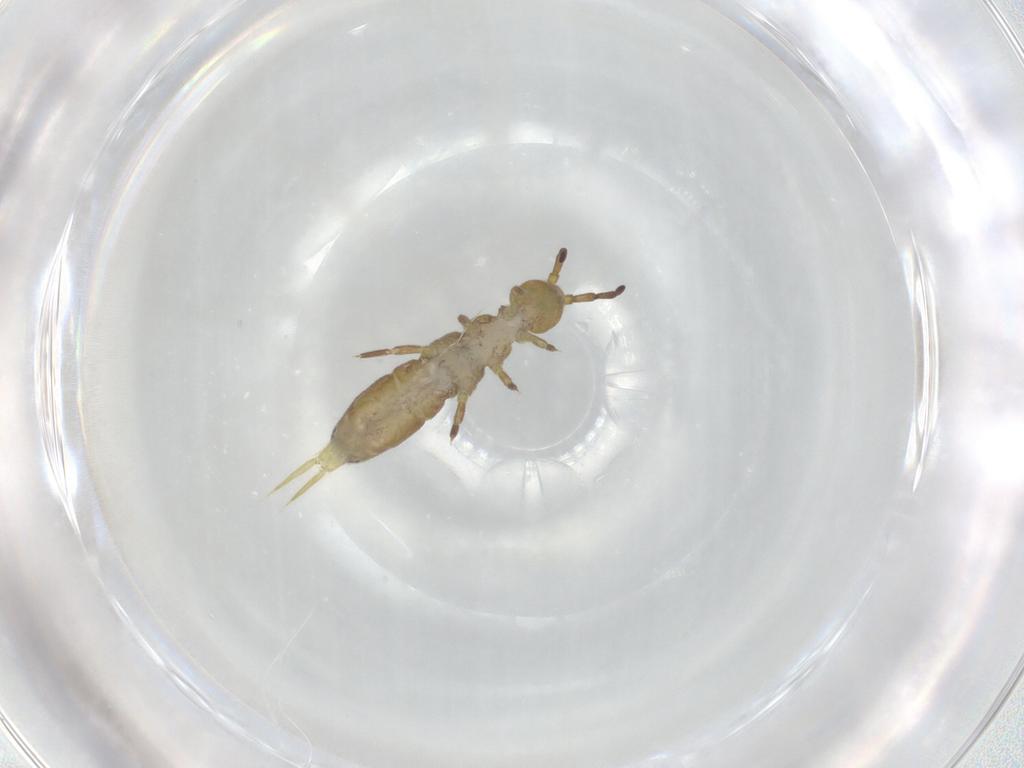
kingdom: Animalia
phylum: Arthropoda
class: Collembola
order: Entomobryomorpha
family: Isotomidae
